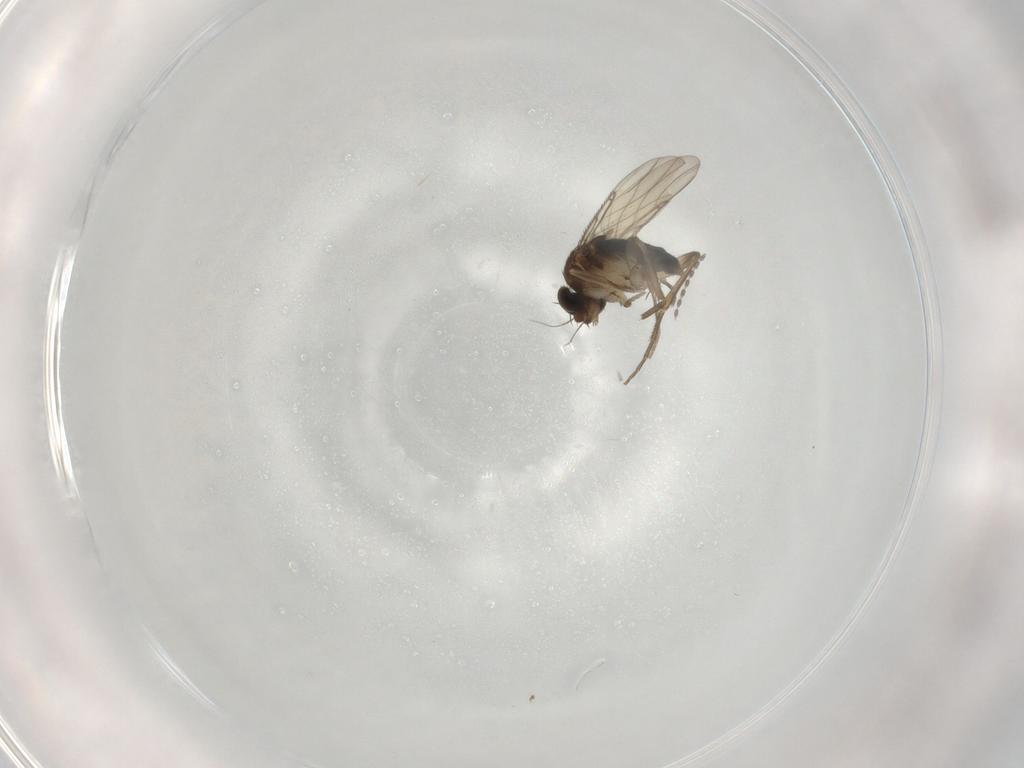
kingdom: Animalia
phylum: Arthropoda
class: Insecta
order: Diptera
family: Phoridae
